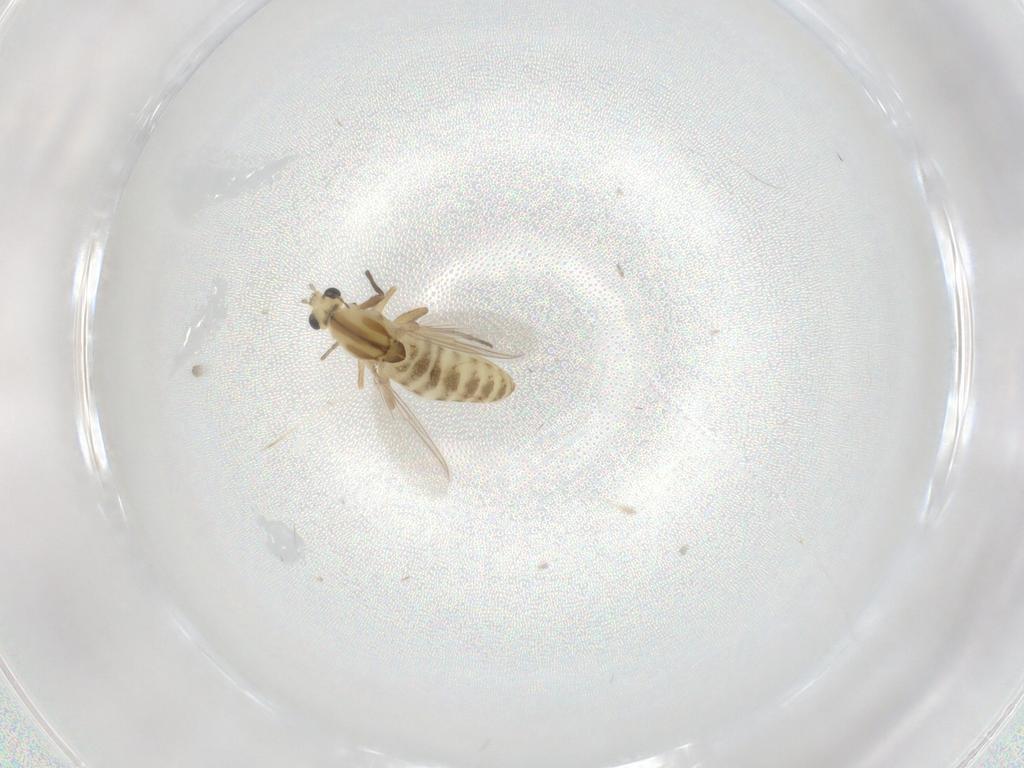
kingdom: Animalia
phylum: Arthropoda
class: Insecta
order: Diptera
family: Chironomidae
